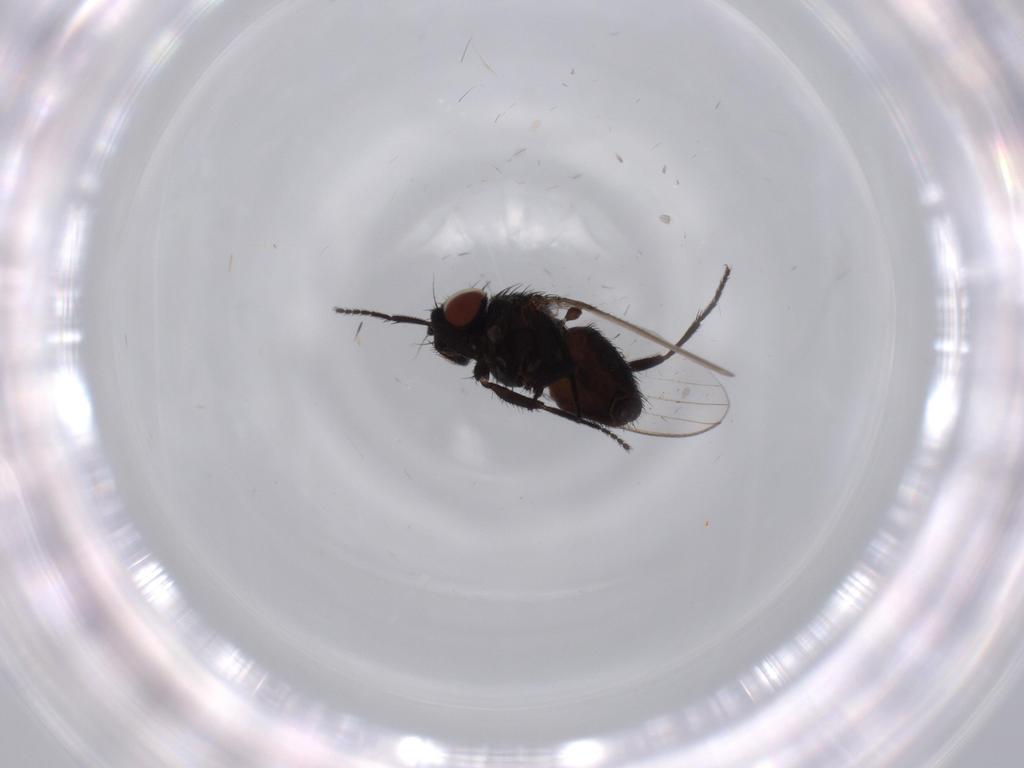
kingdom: Animalia
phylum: Arthropoda
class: Insecta
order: Diptera
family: Milichiidae
